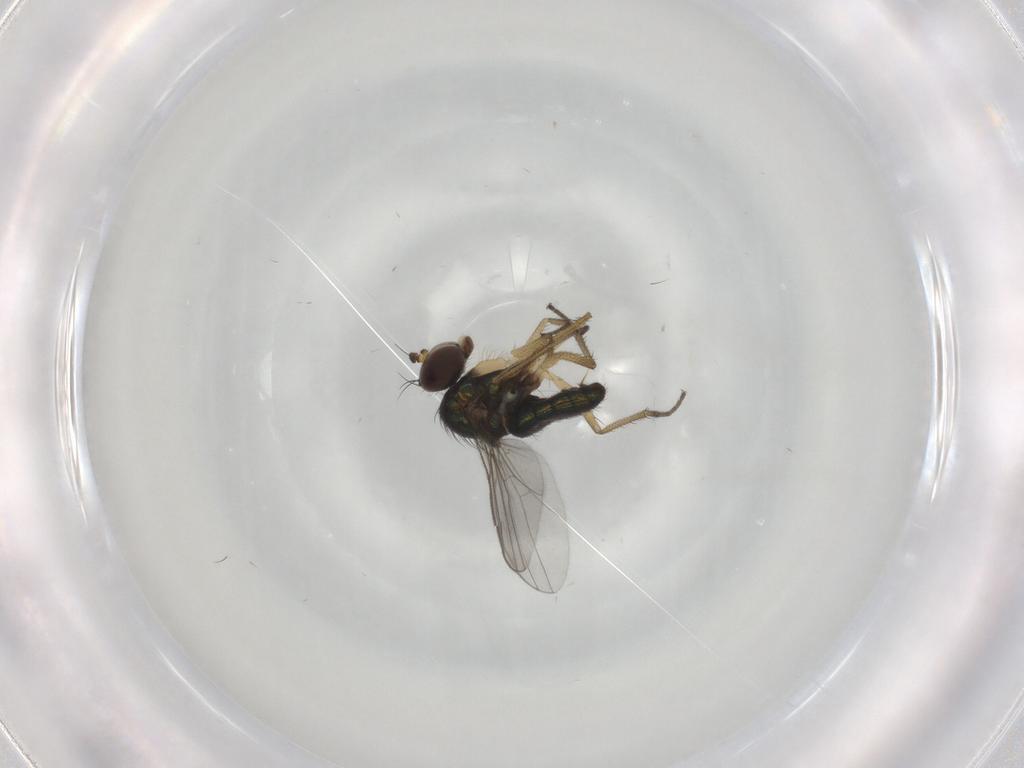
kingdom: Animalia
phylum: Arthropoda
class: Insecta
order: Diptera
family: Dolichopodidae
